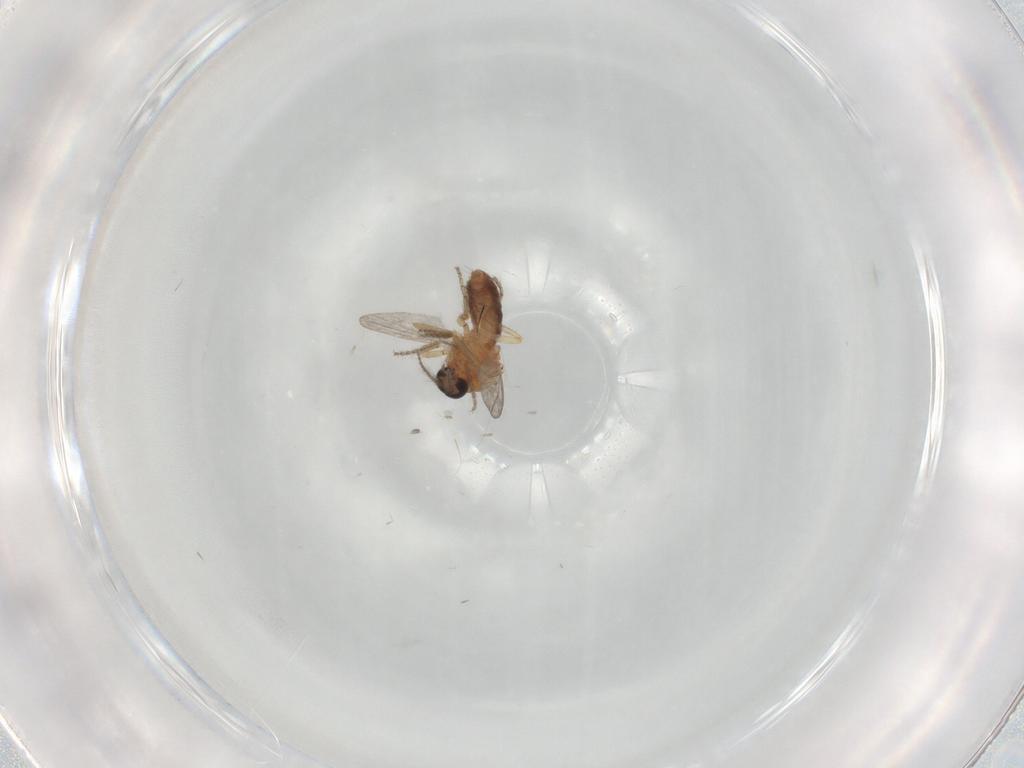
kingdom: Animalia
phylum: Arthropoda
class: Insecta
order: Diptera
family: Ceratopogonidae
